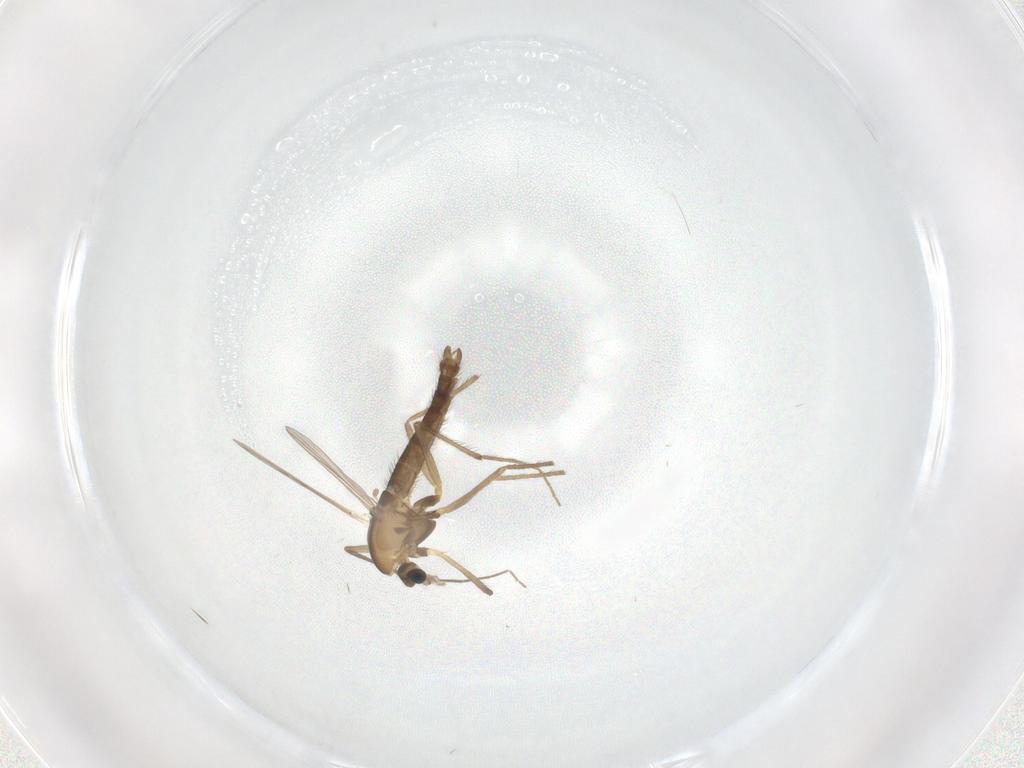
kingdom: Animalia
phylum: Arthropoda
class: Insecta
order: Diptera
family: Chironomidae
